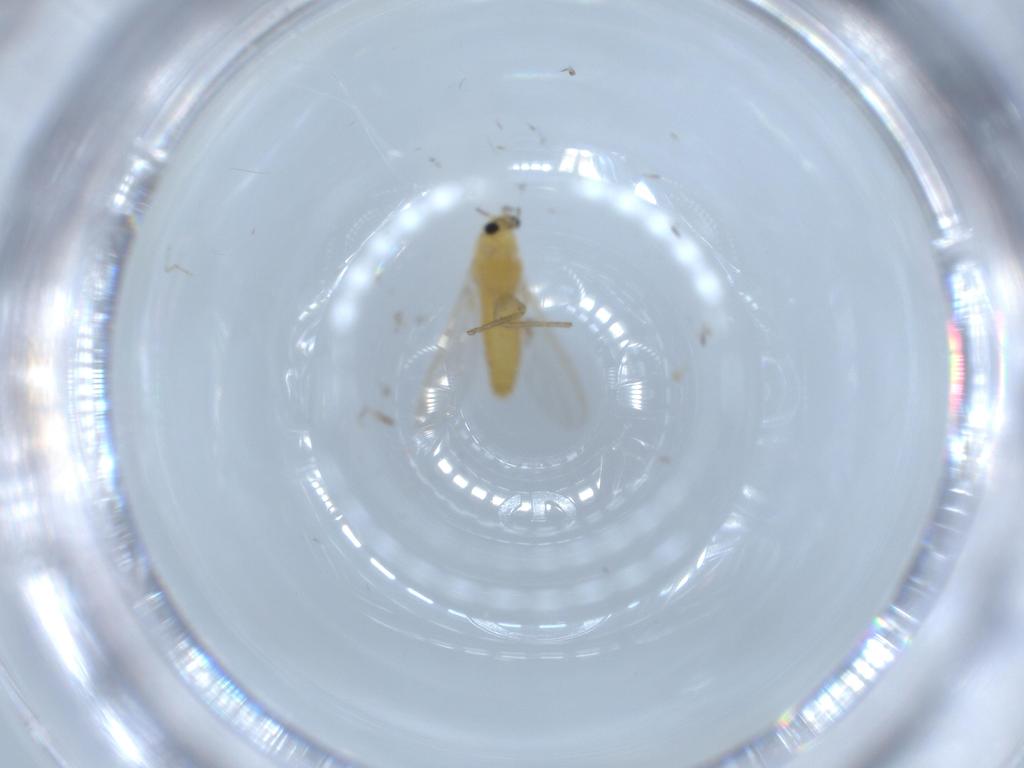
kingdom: Animalia
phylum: Arthropoda
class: Insecta
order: Diptera
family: Chironomidae
